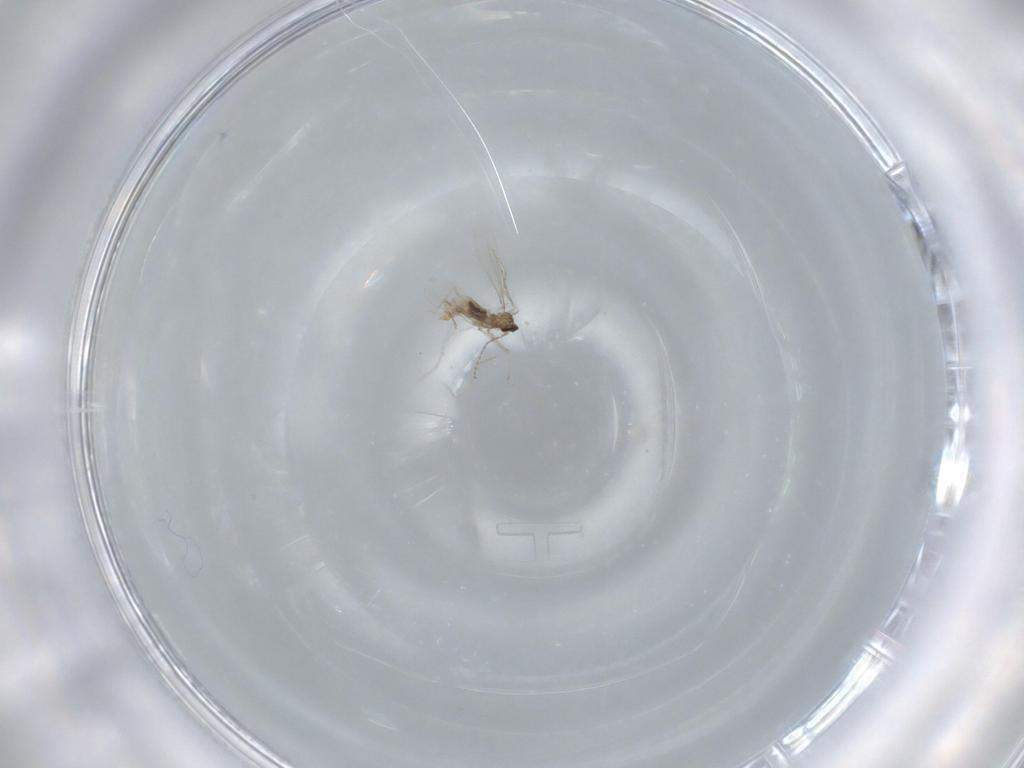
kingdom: Animalia
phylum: Arthropoda
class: Insecta
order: Diptera
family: Cecidomyiidae
